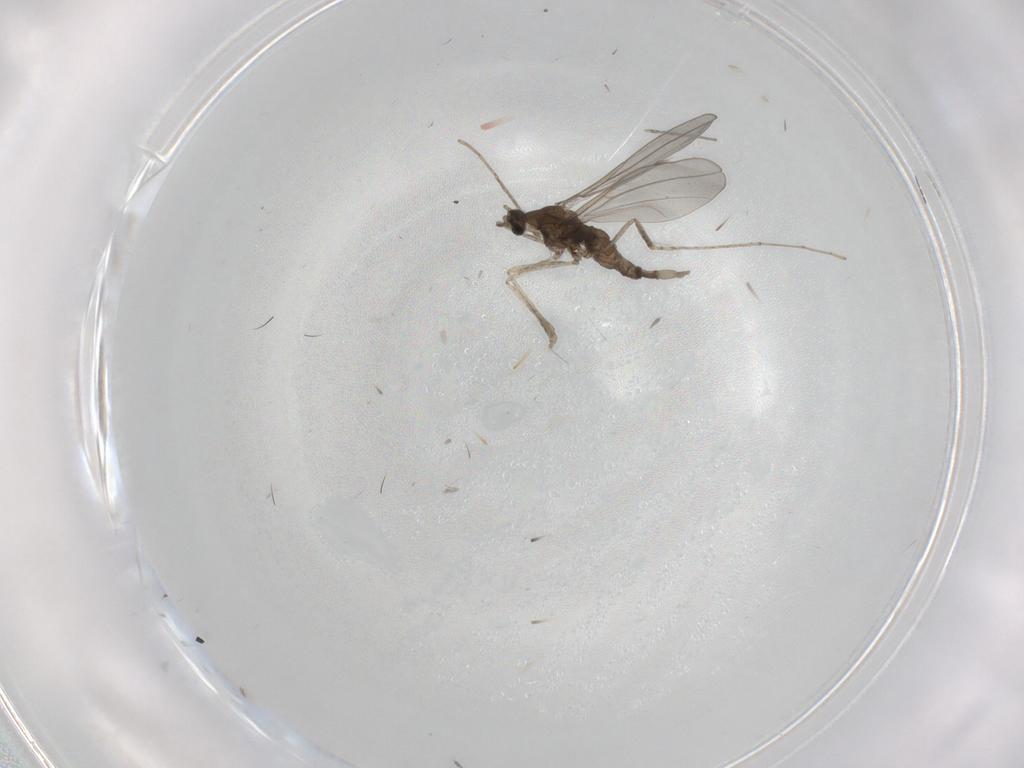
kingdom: Animalia
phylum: Arthropoda
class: Insecta
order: Diptera
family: Cecidomyiidae
